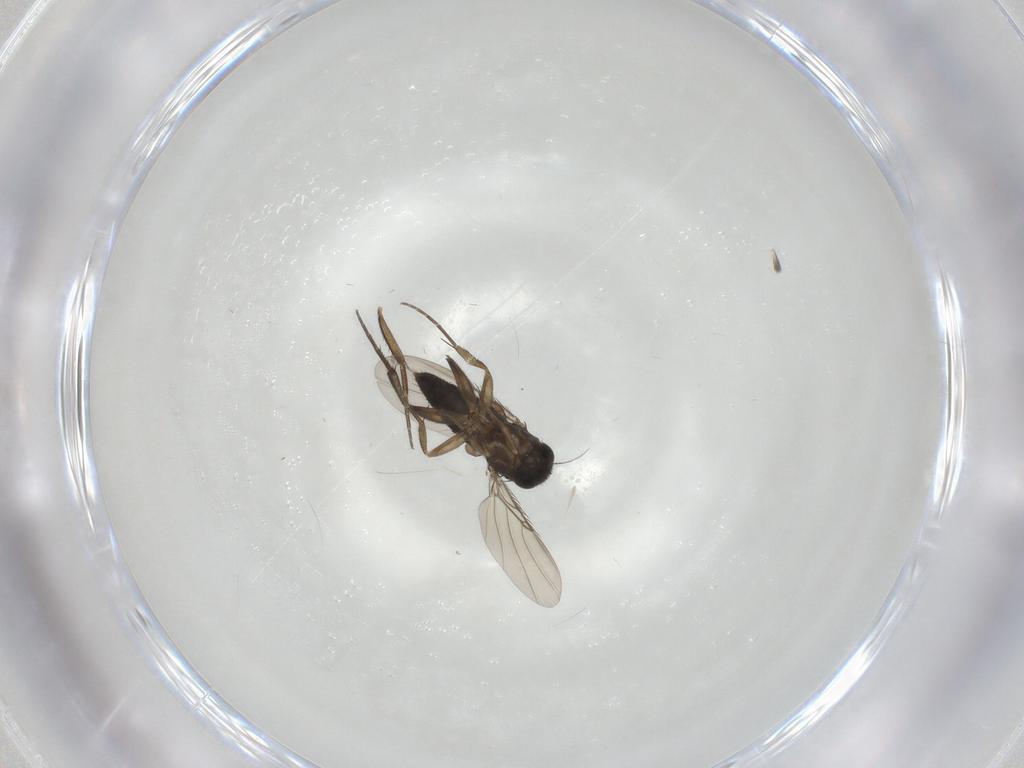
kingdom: Animalia
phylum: Arthropoda
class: Insecta
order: Diptera
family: Phoridae
